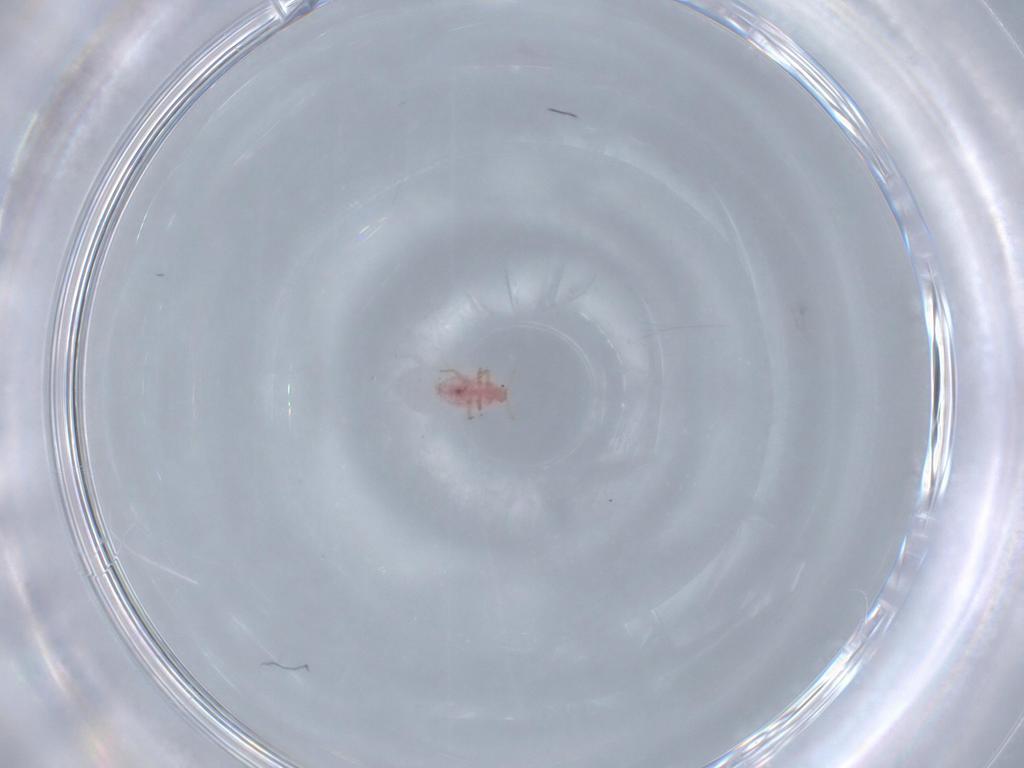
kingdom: Animalia
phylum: Arthropoda
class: Insecta
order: Hemiptera
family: Pseudococcidae
